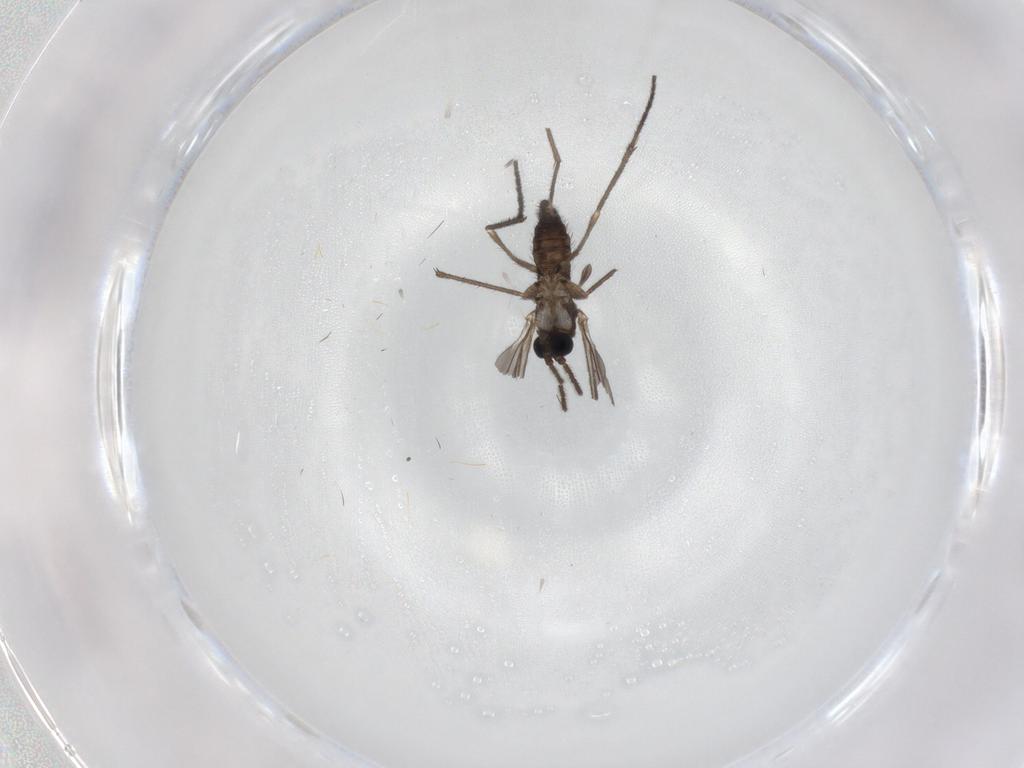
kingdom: Animalia
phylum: Arthropoda
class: Insecta
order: Diptera
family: Sciaridae
